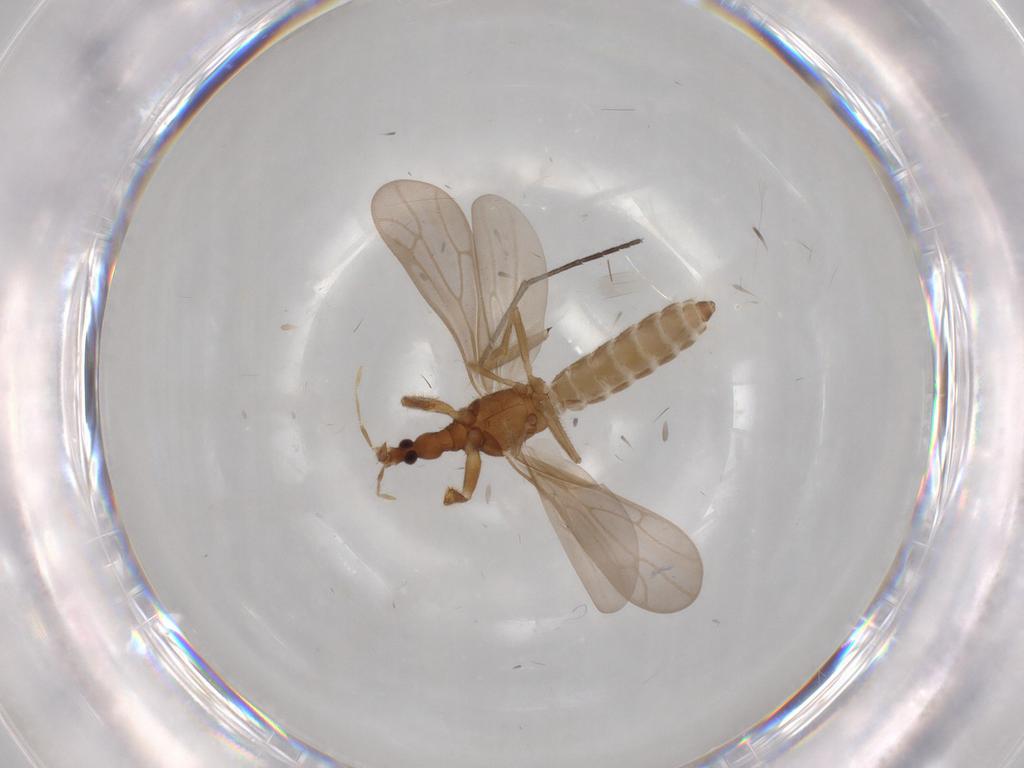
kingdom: Animalia
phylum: Arthropoda
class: Insecta
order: Hemiptera
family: Enicocephalidae
